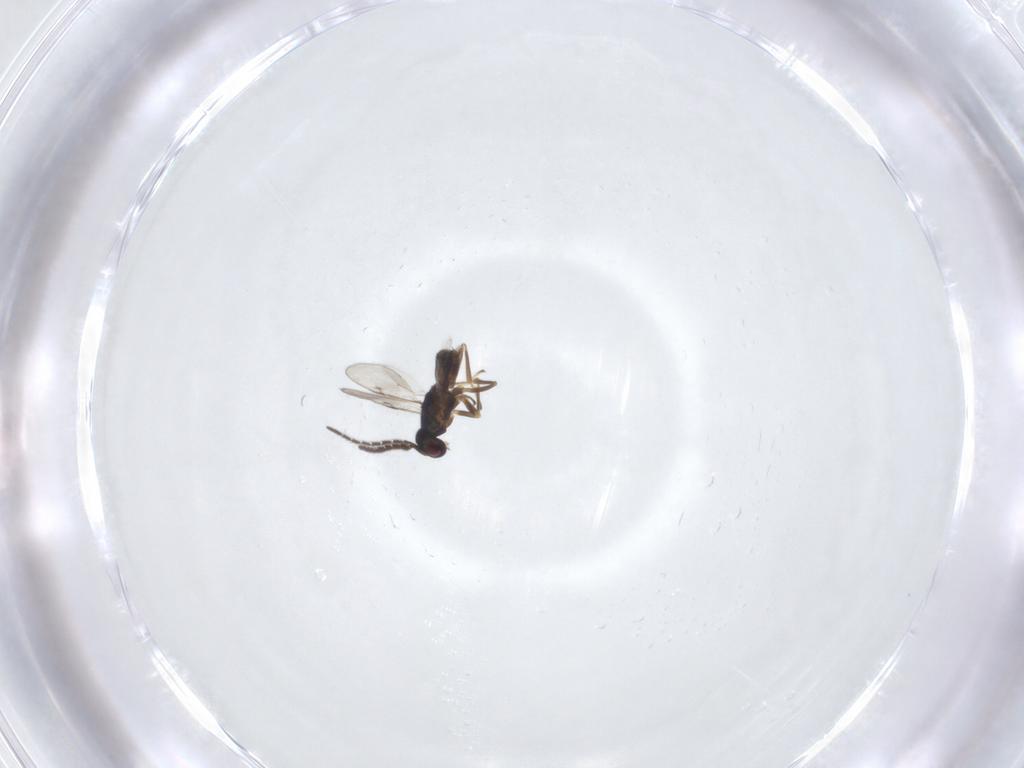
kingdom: Animalia
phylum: Arthropoda
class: Insecta
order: Hymenoptera
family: Encyrtidae
